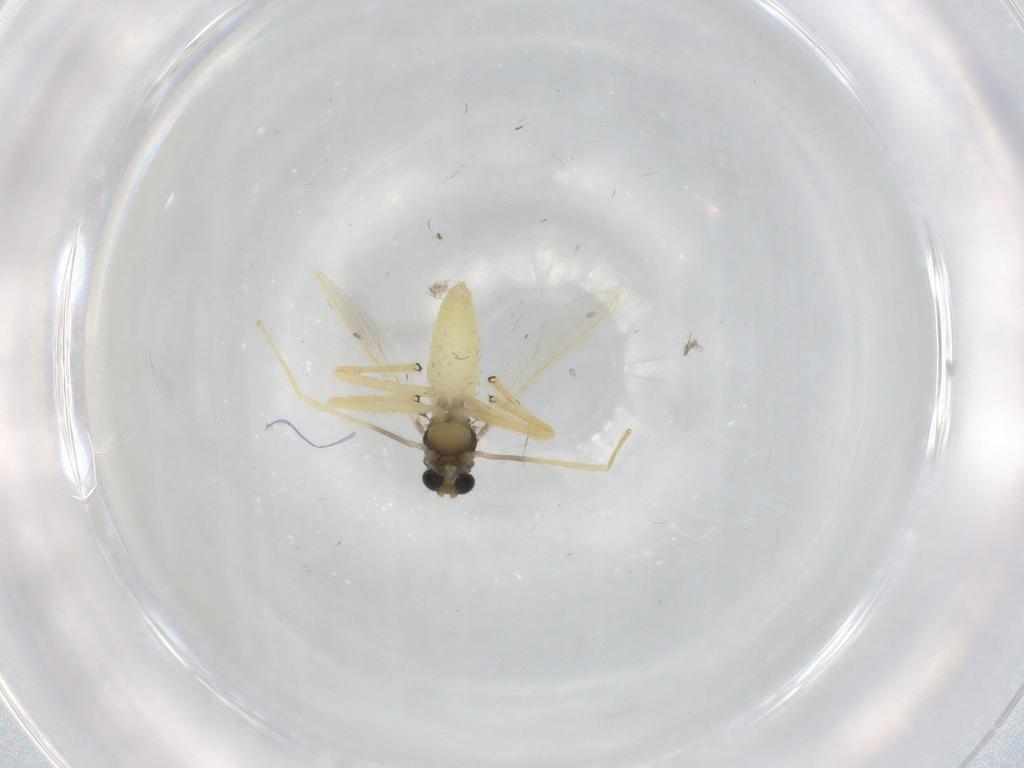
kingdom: Animalia
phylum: Arthropoda
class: Insecta
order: Diptera
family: Chironomidae
